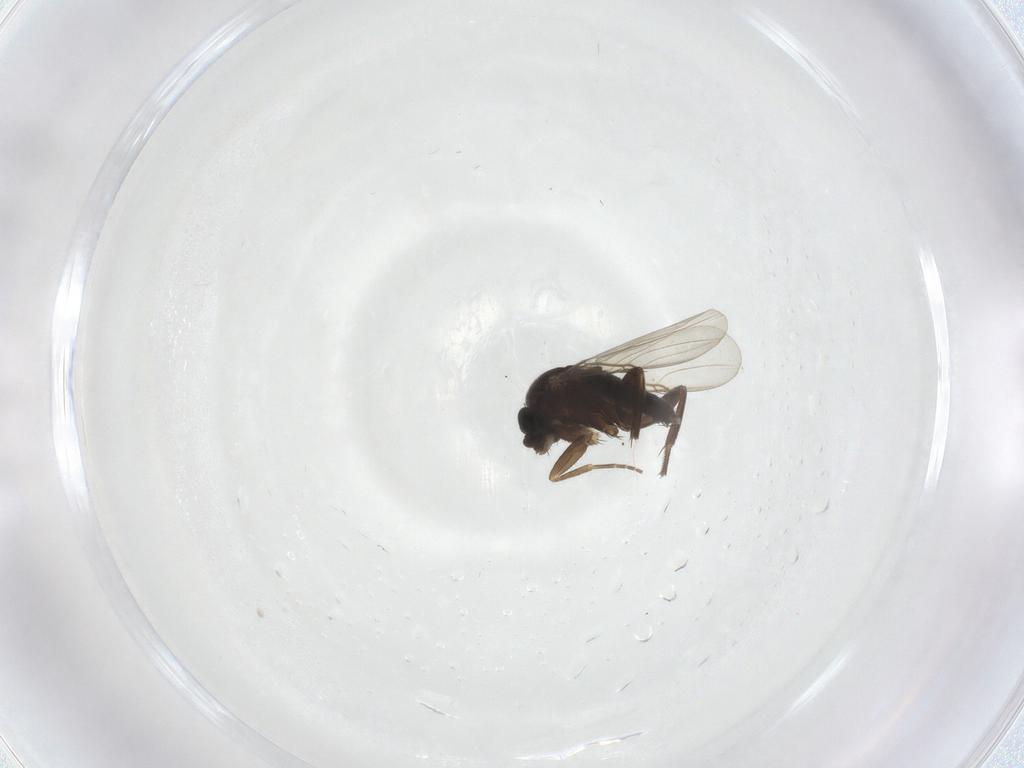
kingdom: Animalia
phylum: Arthropoda
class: Insecta
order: Diptera
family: Phoridae
